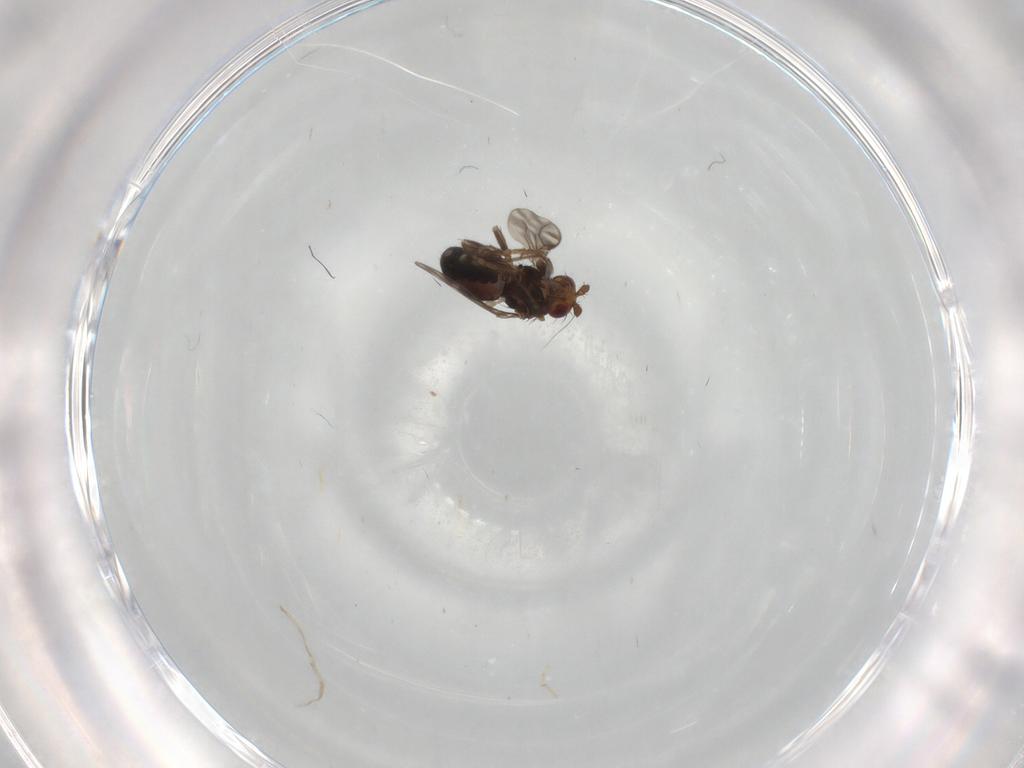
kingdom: Animalia
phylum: Arthropoda
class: Insecta
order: Diptera
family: Sphaeroceridae
